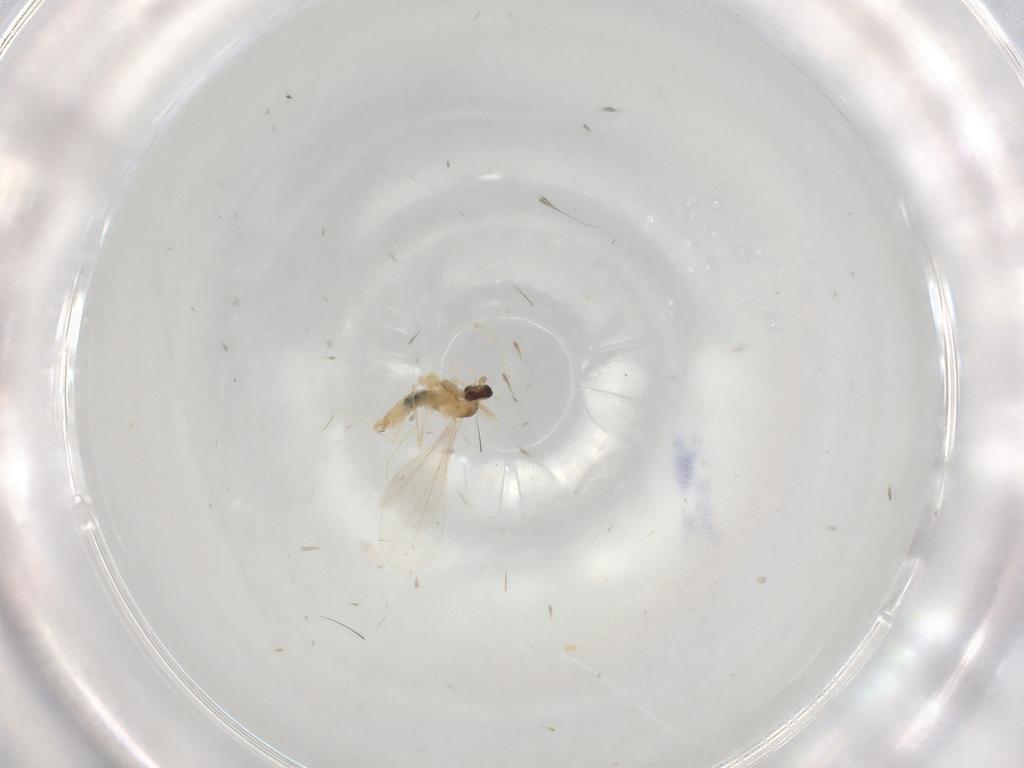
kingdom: Animalia
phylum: Arthropoda
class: Insecta
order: Diptera
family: Cecidomyiidae
